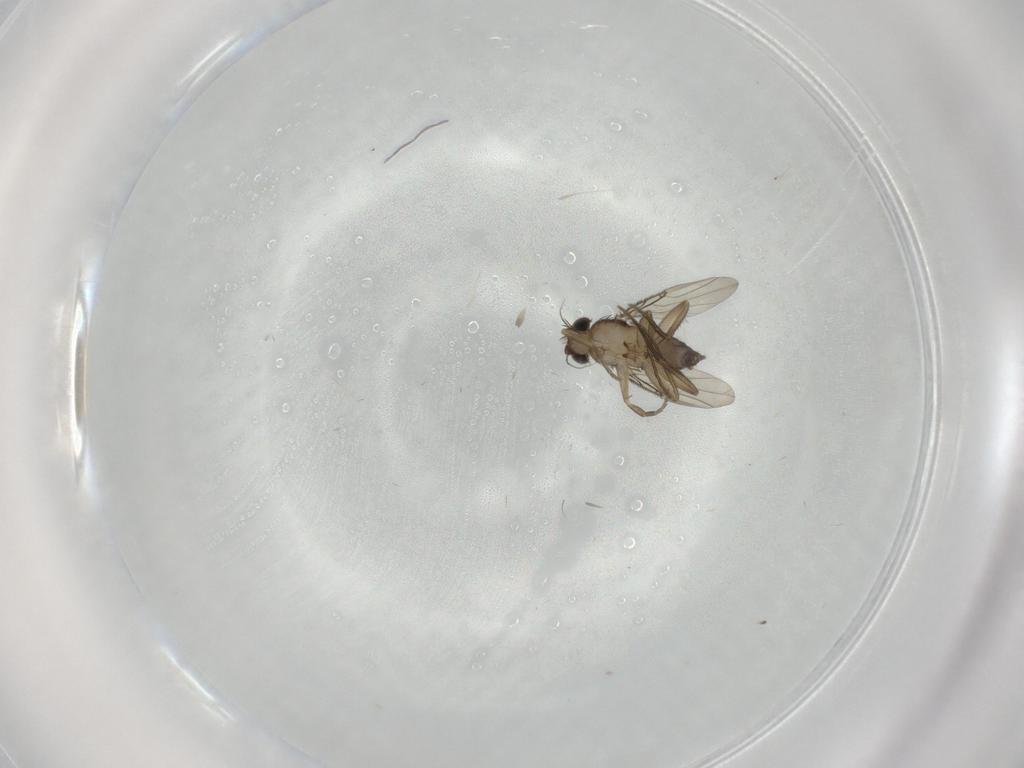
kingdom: Animalia
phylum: Arthropoda
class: Insecta
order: Diptera
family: Phoridae
